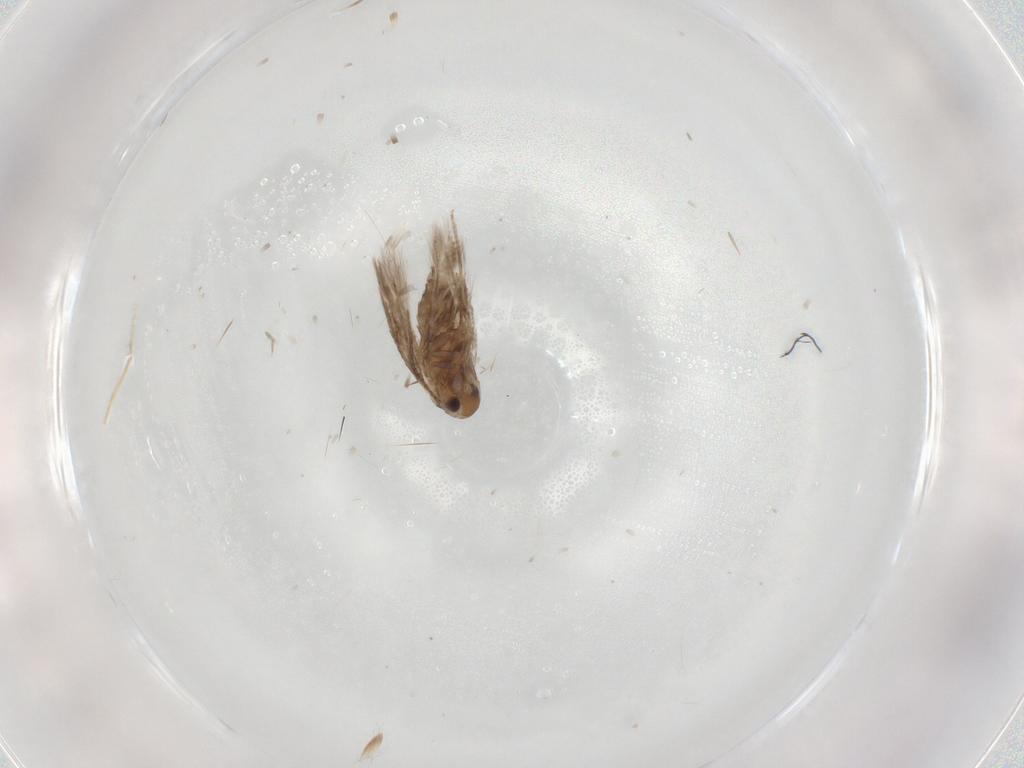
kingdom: Animalia
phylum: Arthropoda
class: Insecta
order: Lepidoptera
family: Nymphalidae
